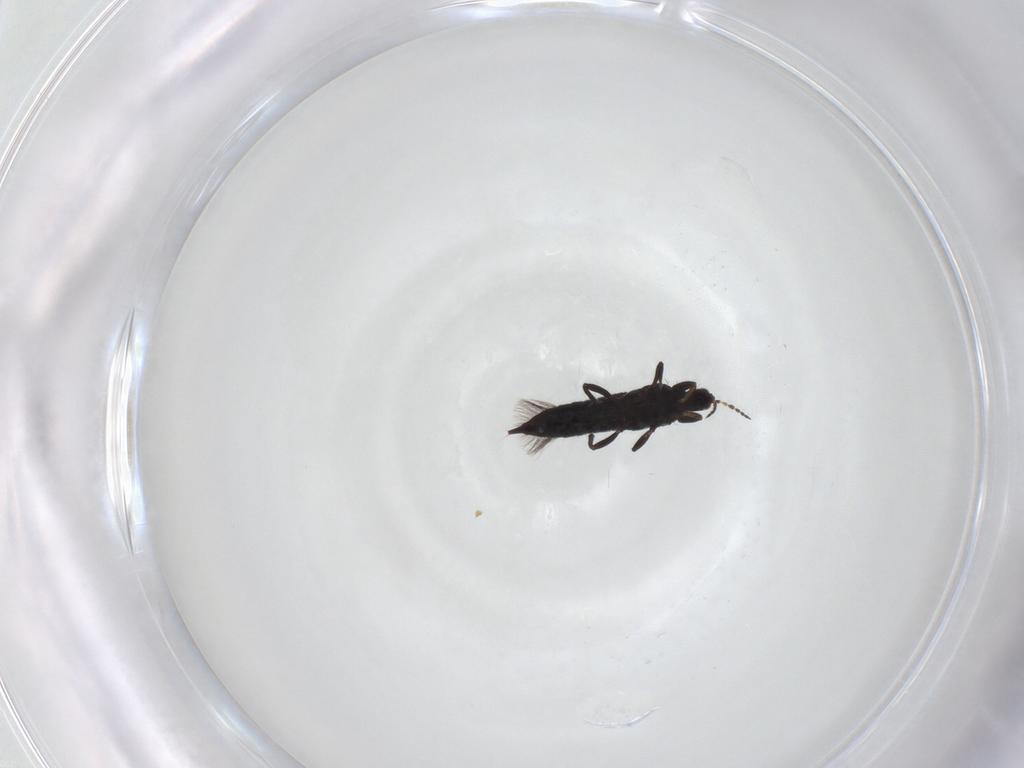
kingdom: Animalia
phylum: Arthropoda
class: Insecta
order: Thysanoptera
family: Phlaeothripidae
